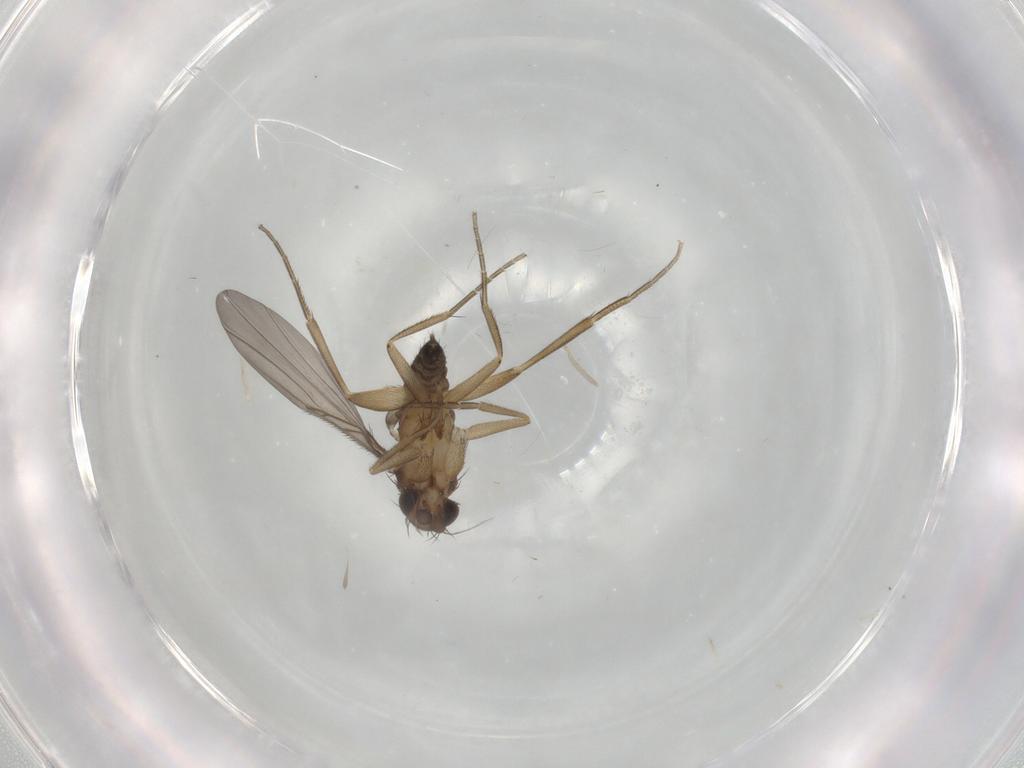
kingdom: Animalia
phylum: Arthropoda
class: Insecta
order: Diptera
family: Phoridae
